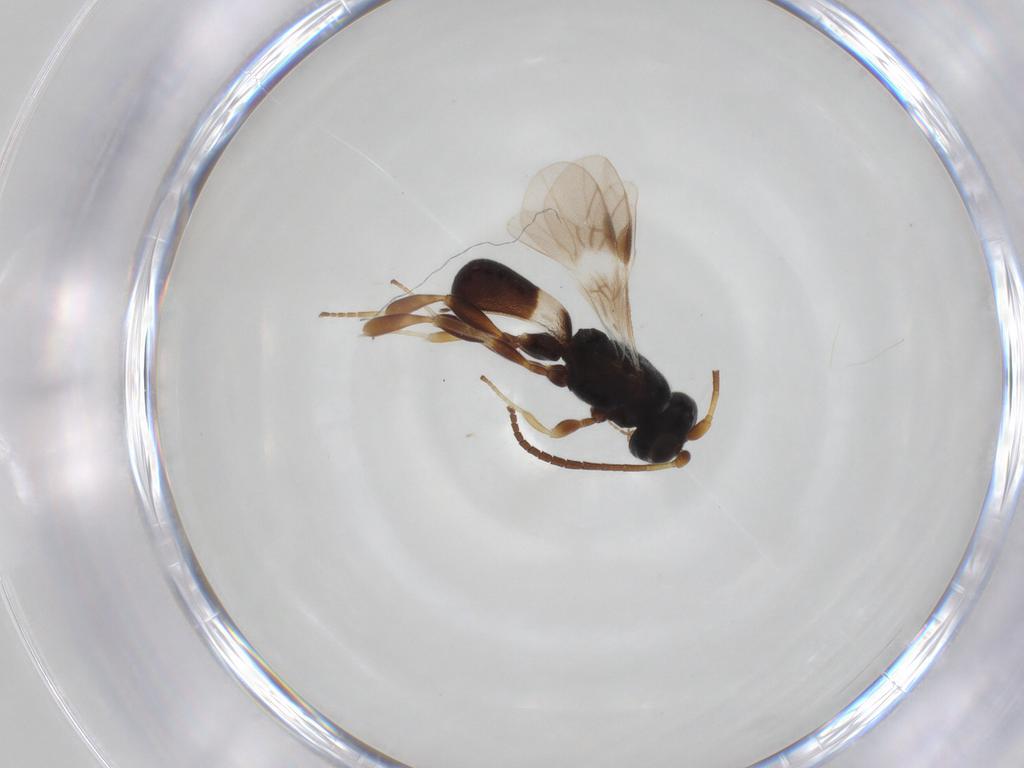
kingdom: Animalia
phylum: Arthropoda
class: Insecta
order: Hymenoptera
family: Braconidae
